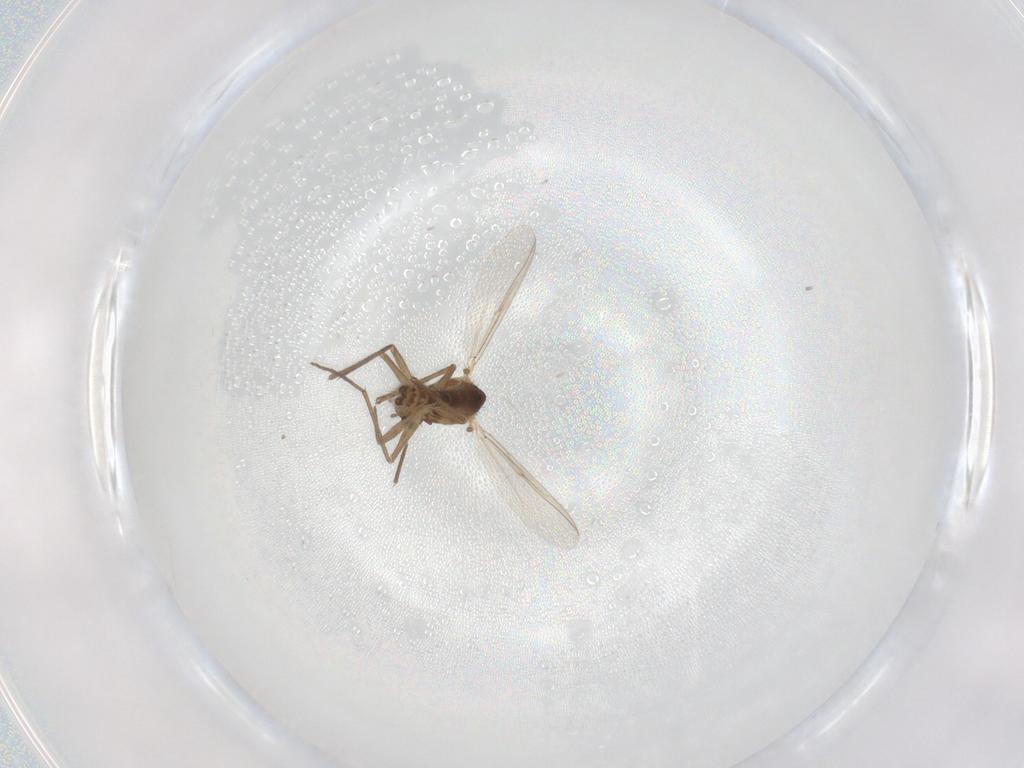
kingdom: Animalia
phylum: Arthropoda
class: Insecta
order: Diptera
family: Chironomidae
